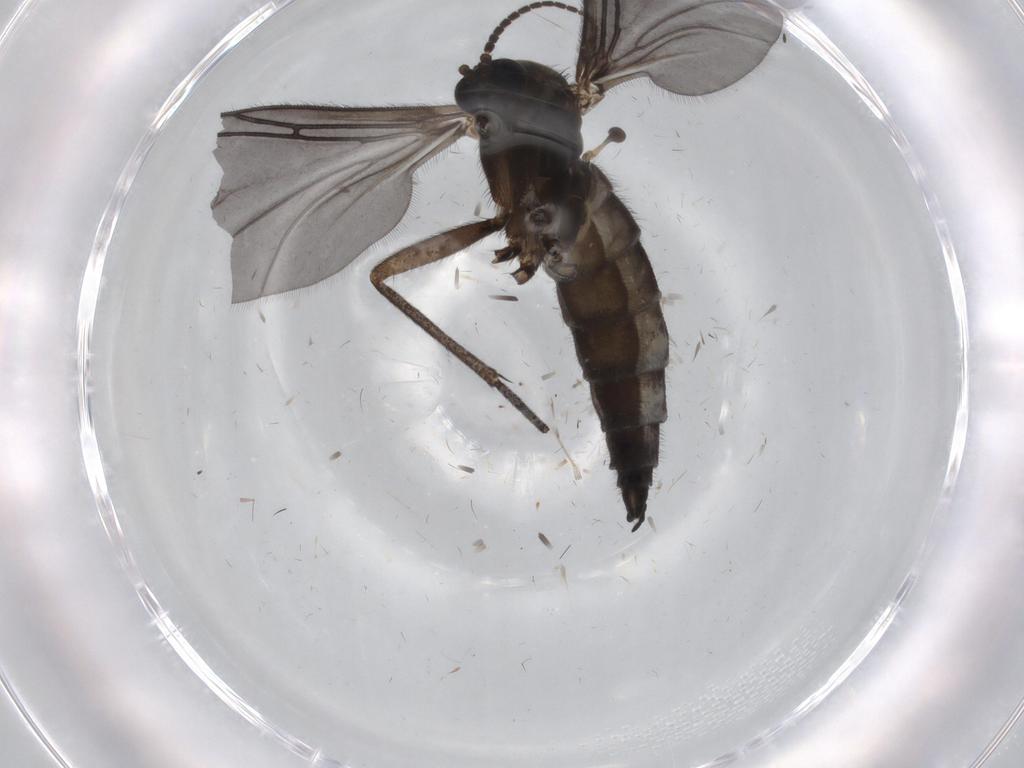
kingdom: Animalia
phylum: Arthropoda
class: Insecta
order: Diptera
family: Sciaridae
